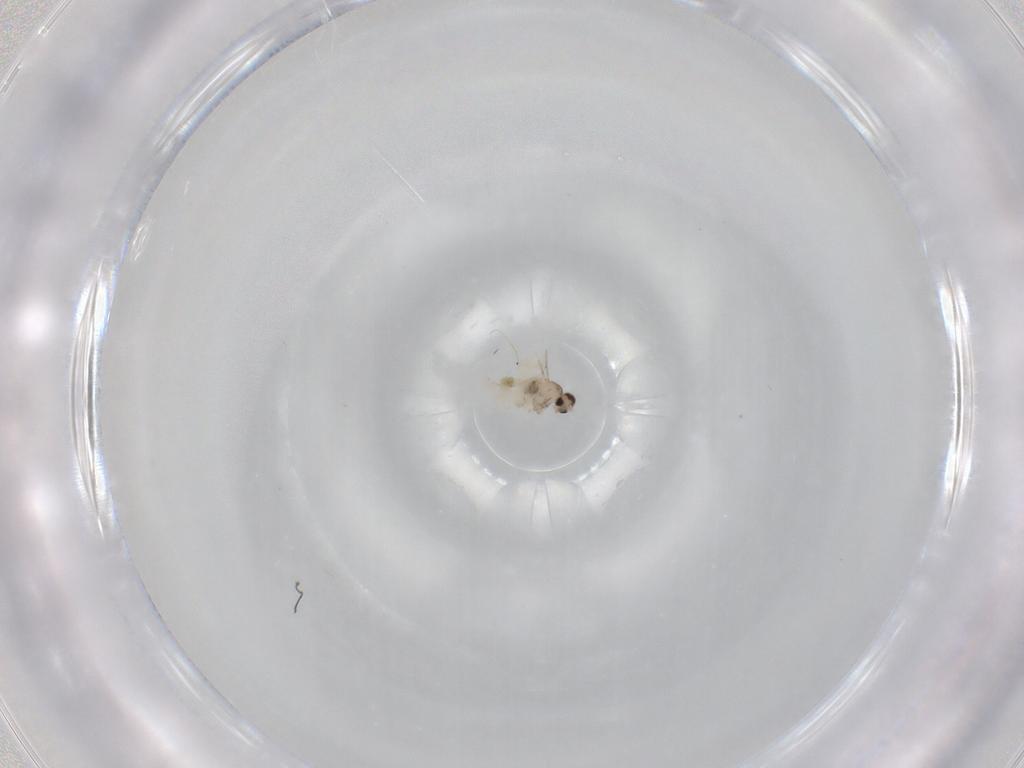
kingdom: Animalia
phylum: Arthropoda
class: Insecta
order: Diptera
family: Cecidomyiidae
